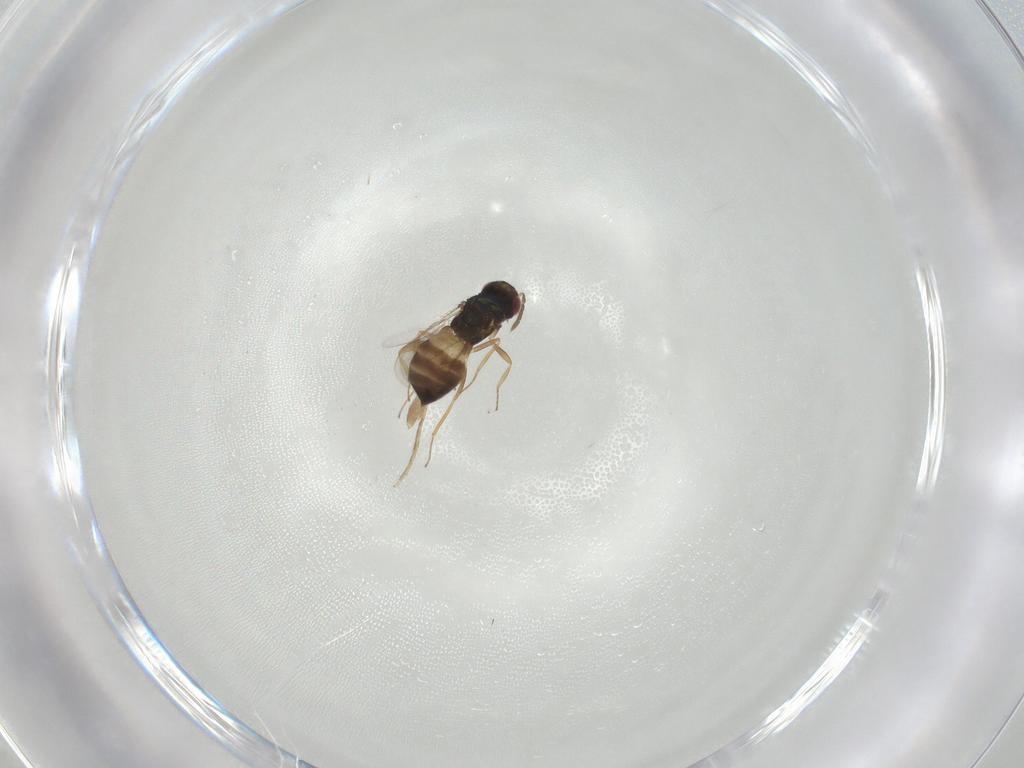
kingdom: Animalia
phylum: Arthropoda
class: Insecta
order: Hymenoptera
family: Eulophidae
